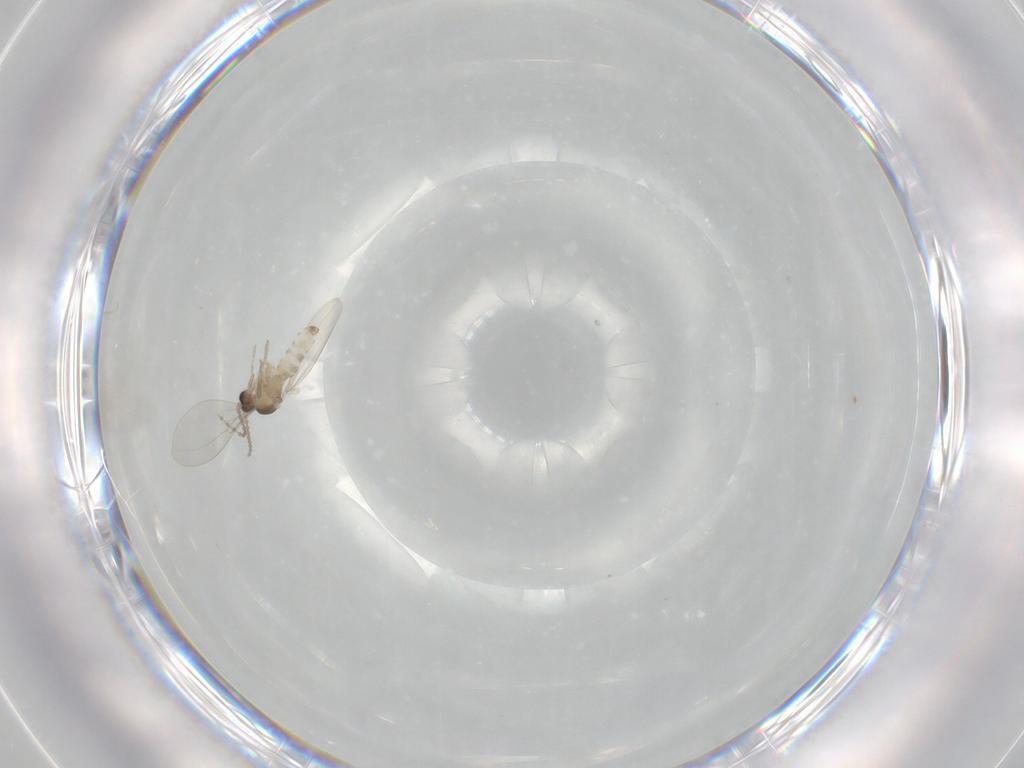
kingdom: Animalia
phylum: Arthropoda
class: Insecta
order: Diptera
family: Cecidomyiidae
